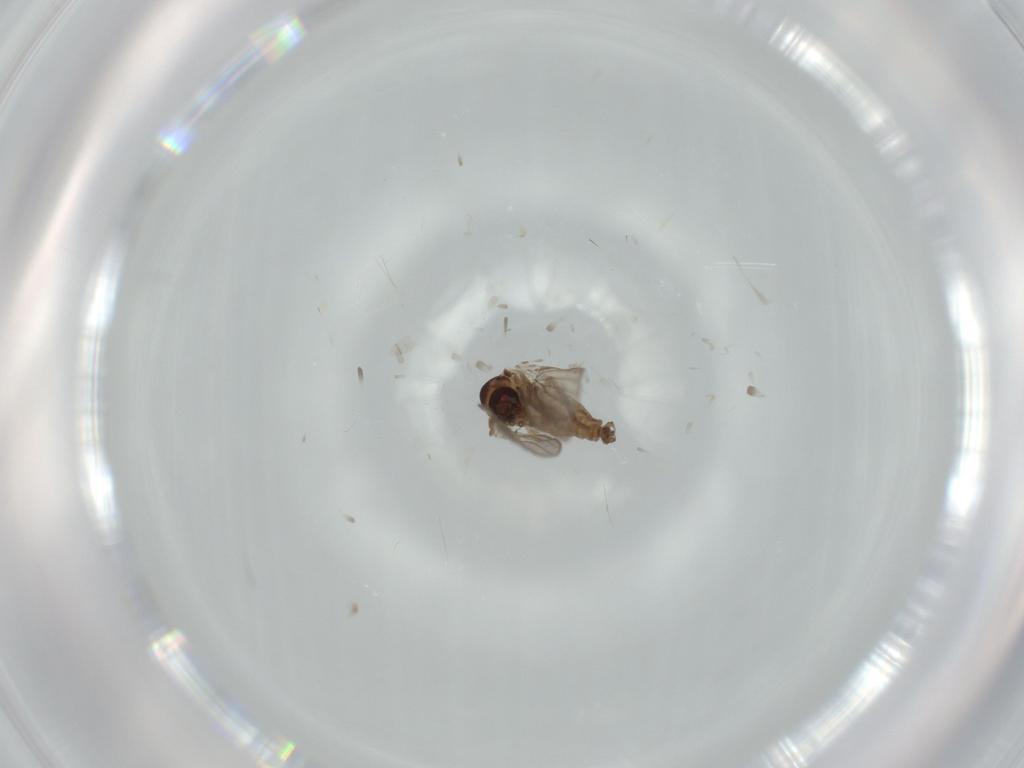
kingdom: Animalia
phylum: Arthropoda
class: Insecta
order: Diptera
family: Psychodidae
